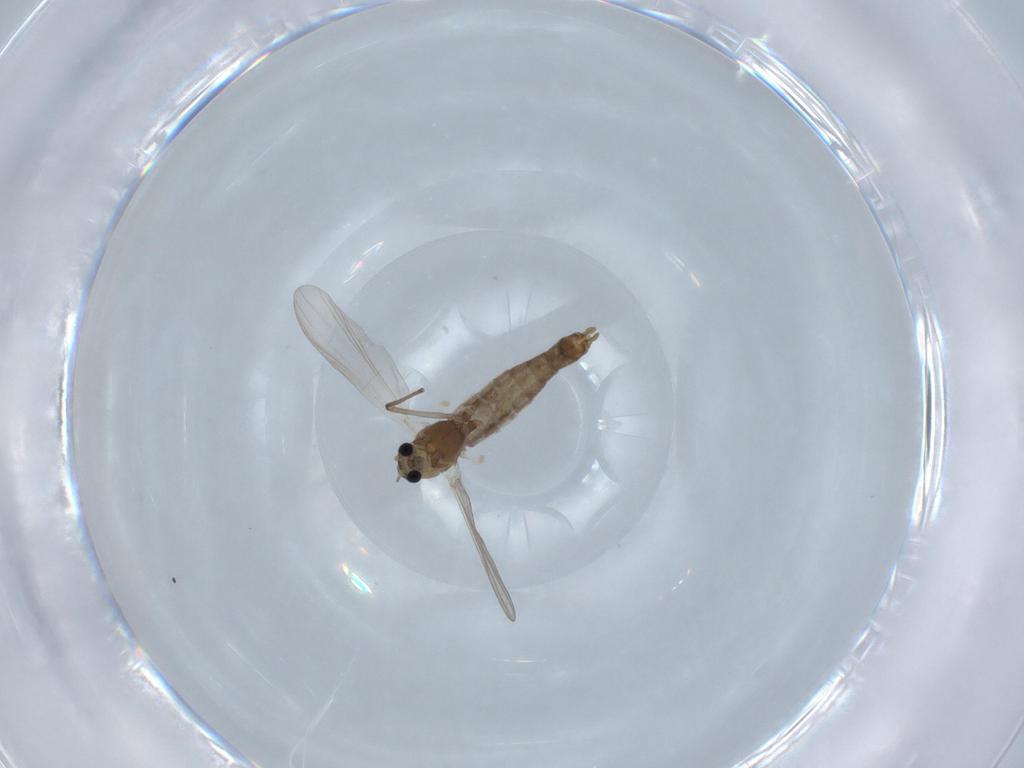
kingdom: Animalia
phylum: Arthropoda
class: Insecta
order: Diptera
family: Chironomidae
